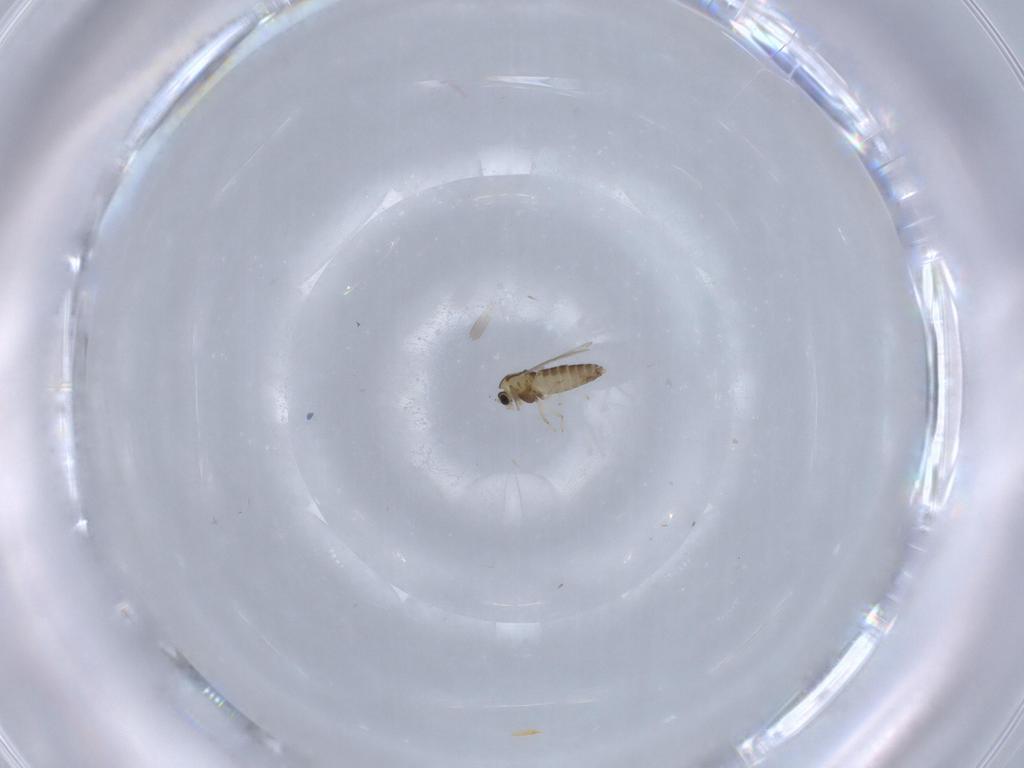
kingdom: Animalia
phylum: Arthropoda
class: Insecta
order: Diptera
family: Chironomidae
